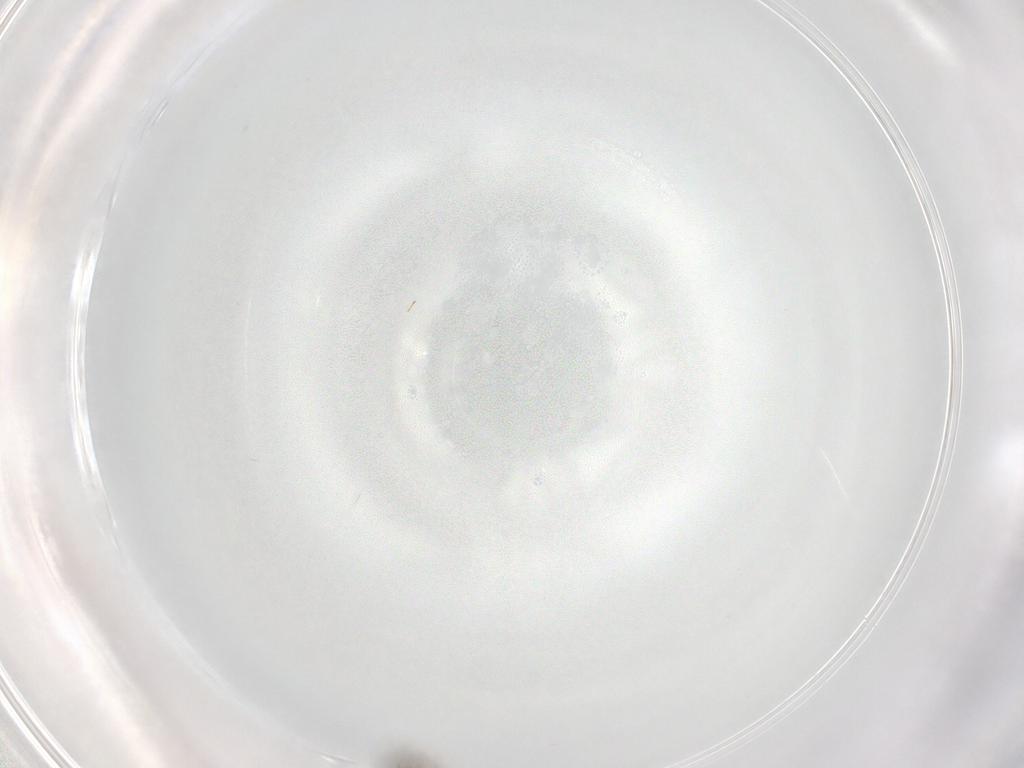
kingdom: Animalia
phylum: Arthropoda
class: Insecta
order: Hymenoptera
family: Platygastridae
